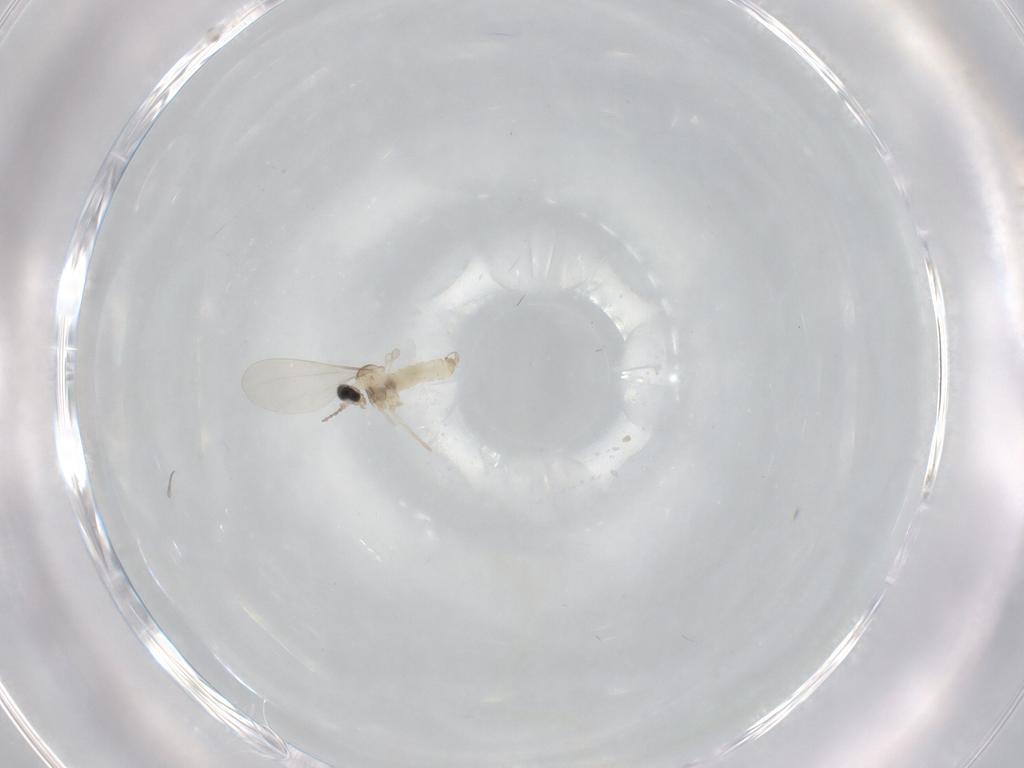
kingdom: Animalia
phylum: Arthropoda
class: Insecta
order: Diptera
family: Cecidomyiidae
